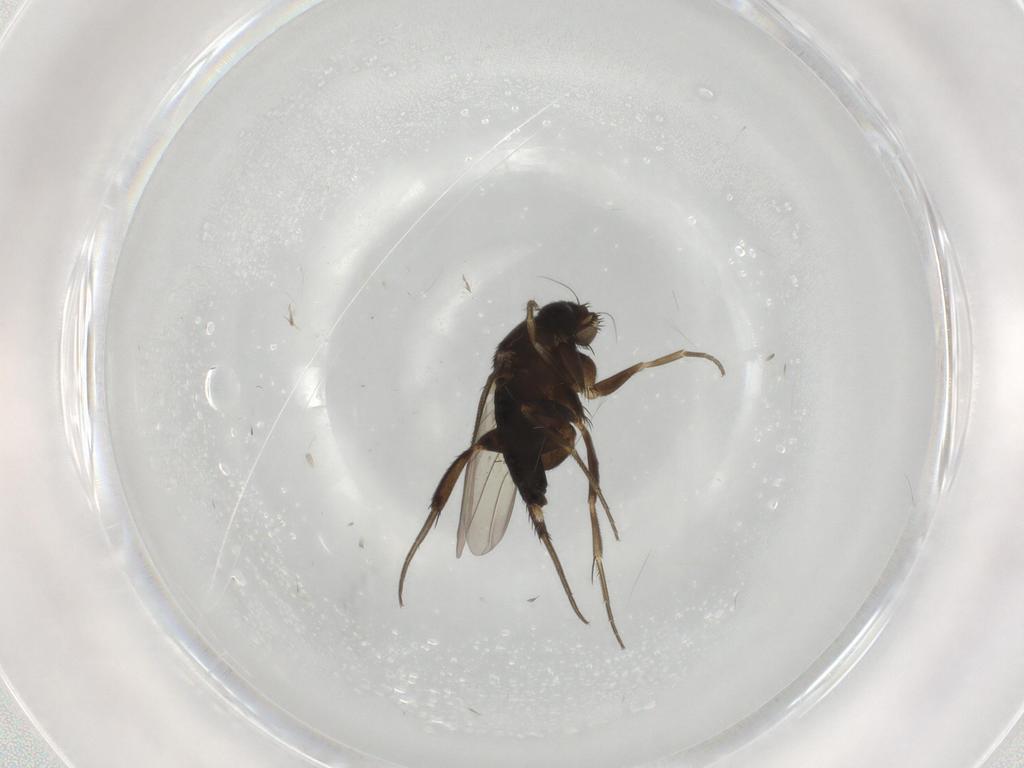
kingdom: Animalia
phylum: Arthropoda
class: Insecta
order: Diptera
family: Phoridae
